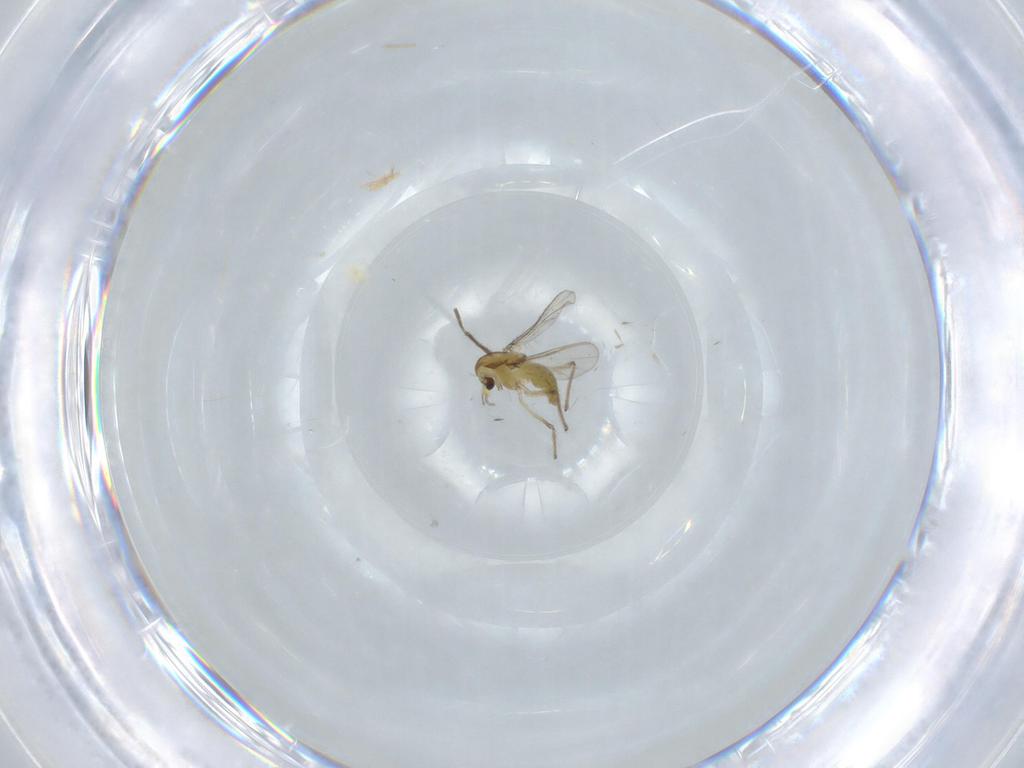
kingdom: Animalia
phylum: Arthropoda
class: Insecta
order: Diptera
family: Chironomidae
